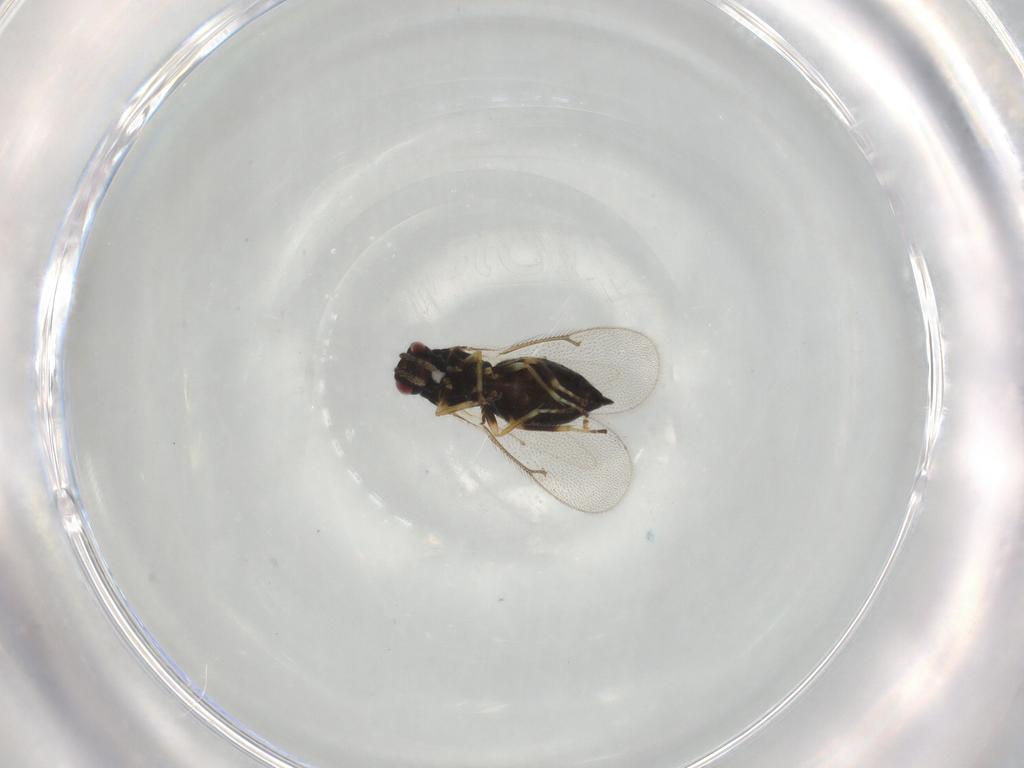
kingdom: Animalia
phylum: Arthropoda
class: Insecta
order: Hymenoptera
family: Eulophidae
